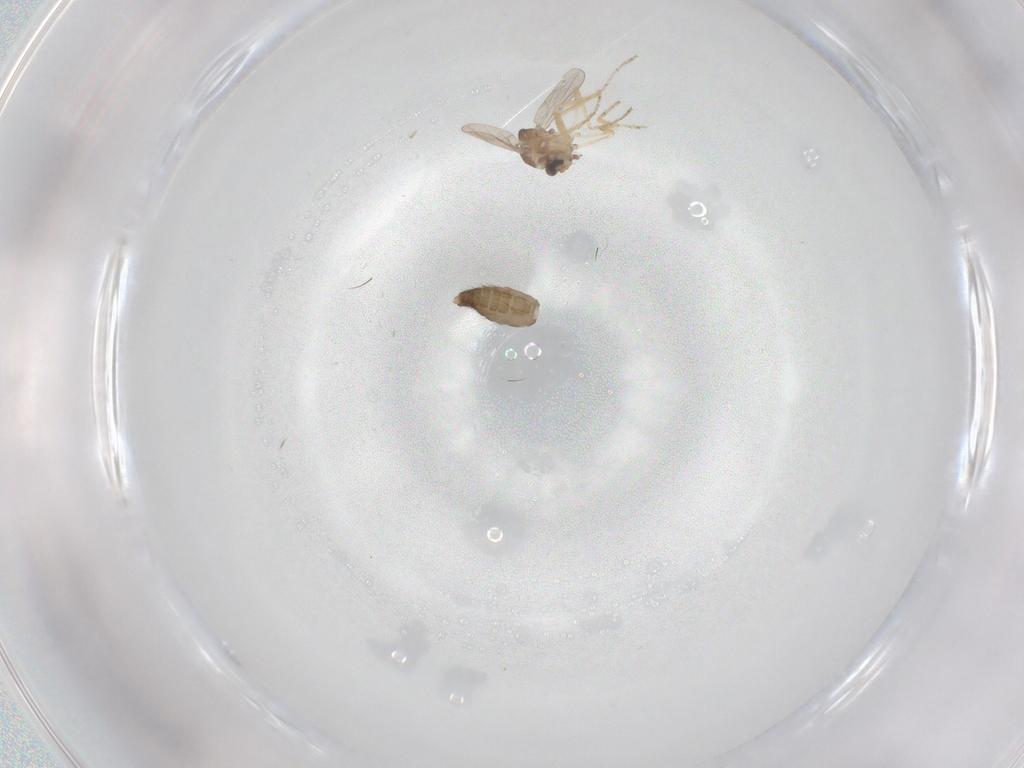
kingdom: Animalia
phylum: Arthropoda
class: Insecta
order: Diptera
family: Ceratopogonidae
